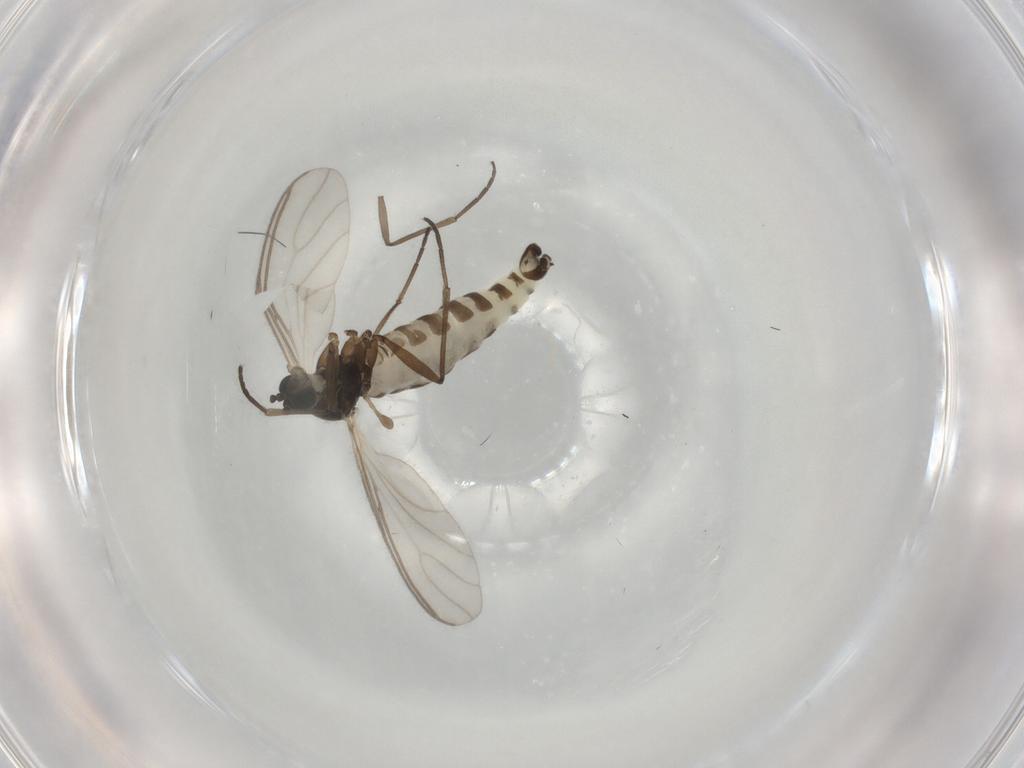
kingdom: Animalia
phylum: Arthropoda
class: Insecta
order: Diptera
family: Sciaridae
